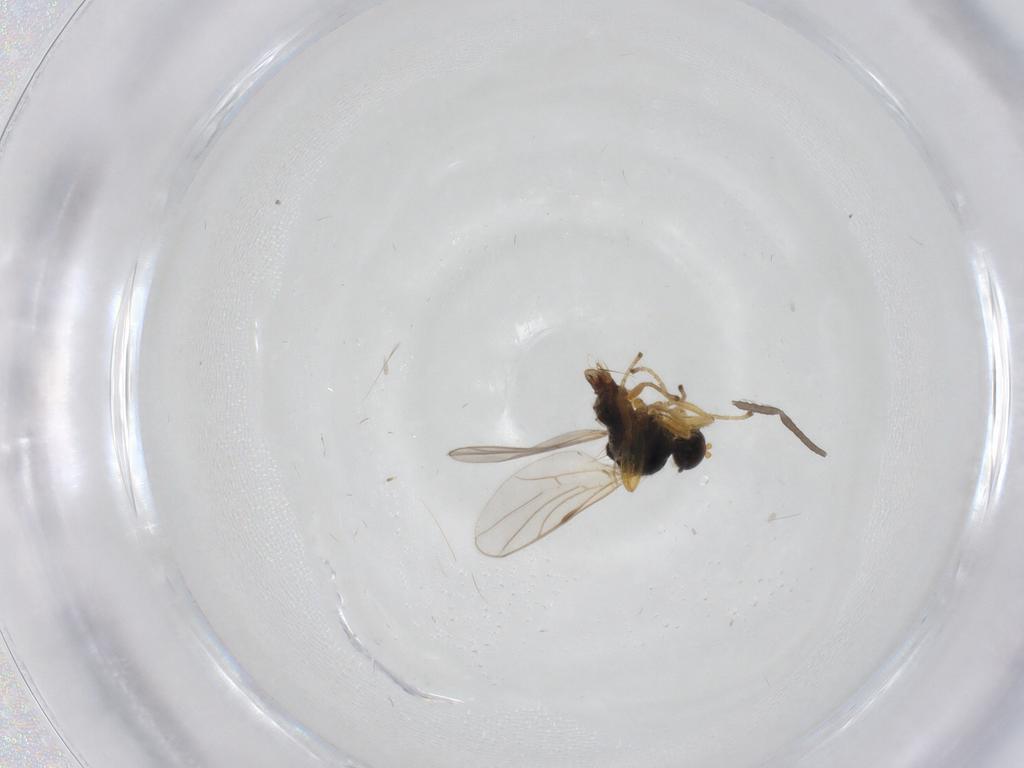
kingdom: Animalia
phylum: Arthropoda
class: Insecta
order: Diptera
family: Cecidomyiidae
